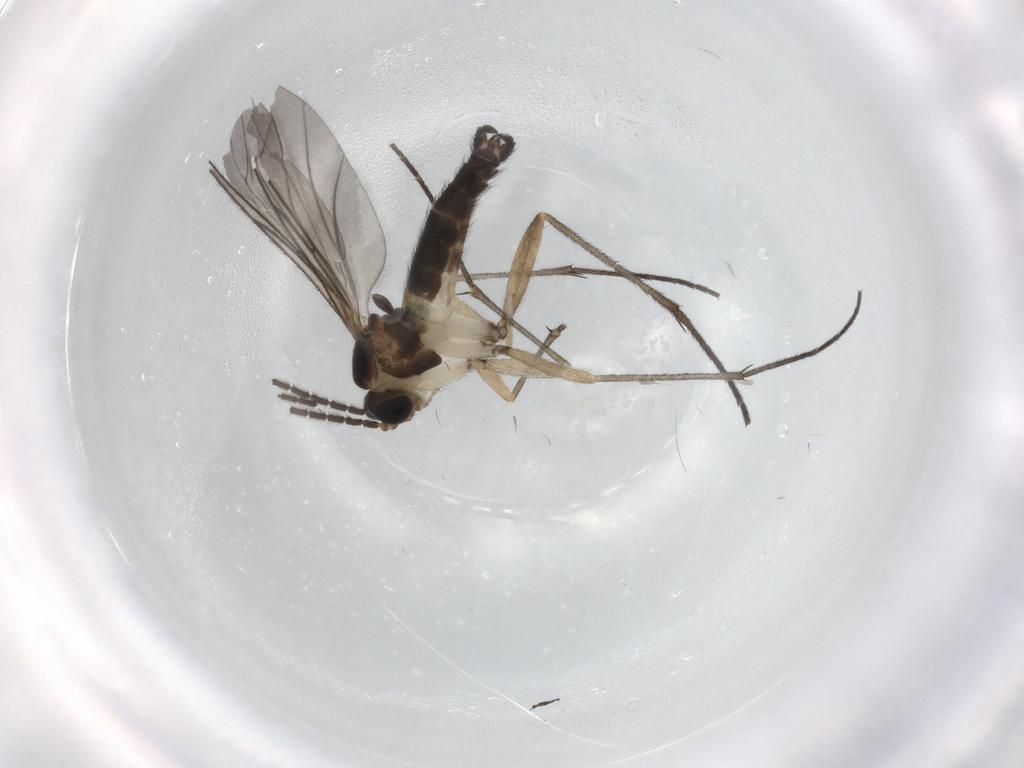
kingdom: Animalia
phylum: Arthropoda
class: Insecta
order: Diptera
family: Chironomidae
